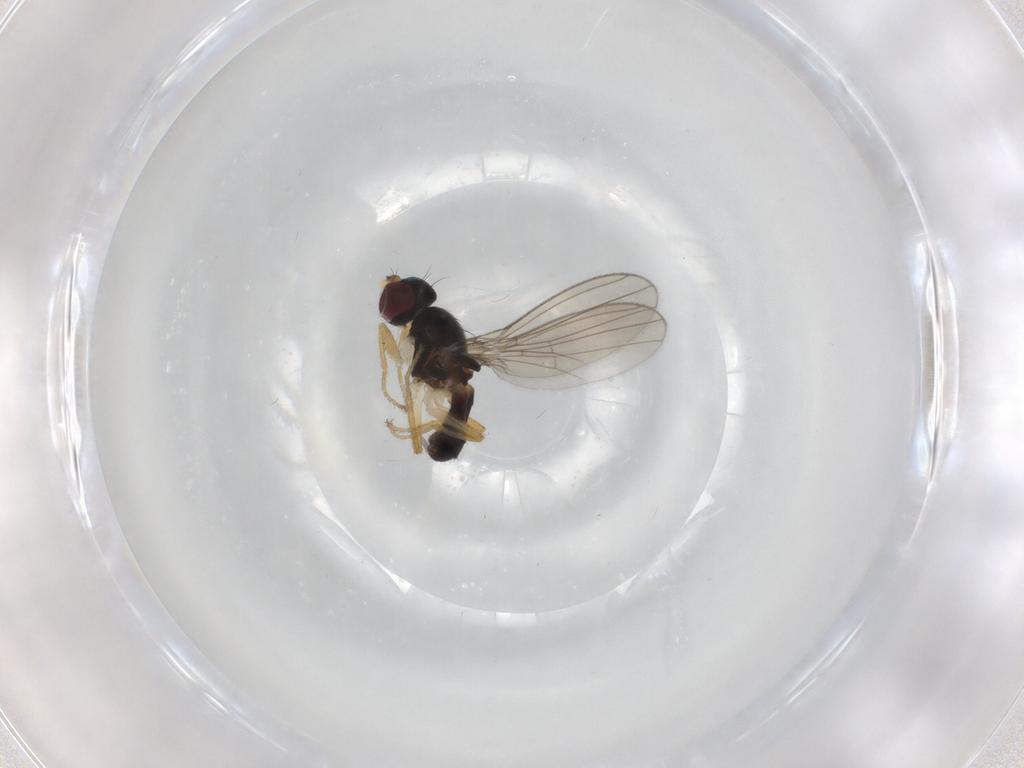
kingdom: Animalia
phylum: Arthropoda
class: Insecta
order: Diptera
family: Anthomyzidae
